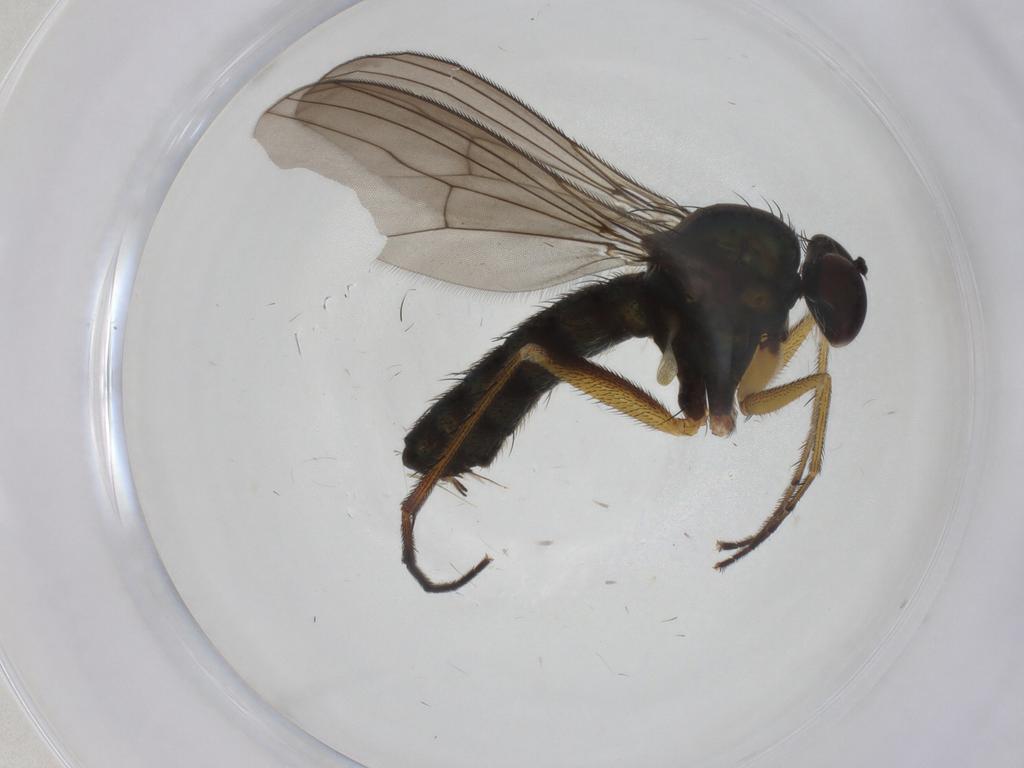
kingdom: Animalia
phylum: Arthropoda
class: Insecta
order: Diptera
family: Dolichopodidae
